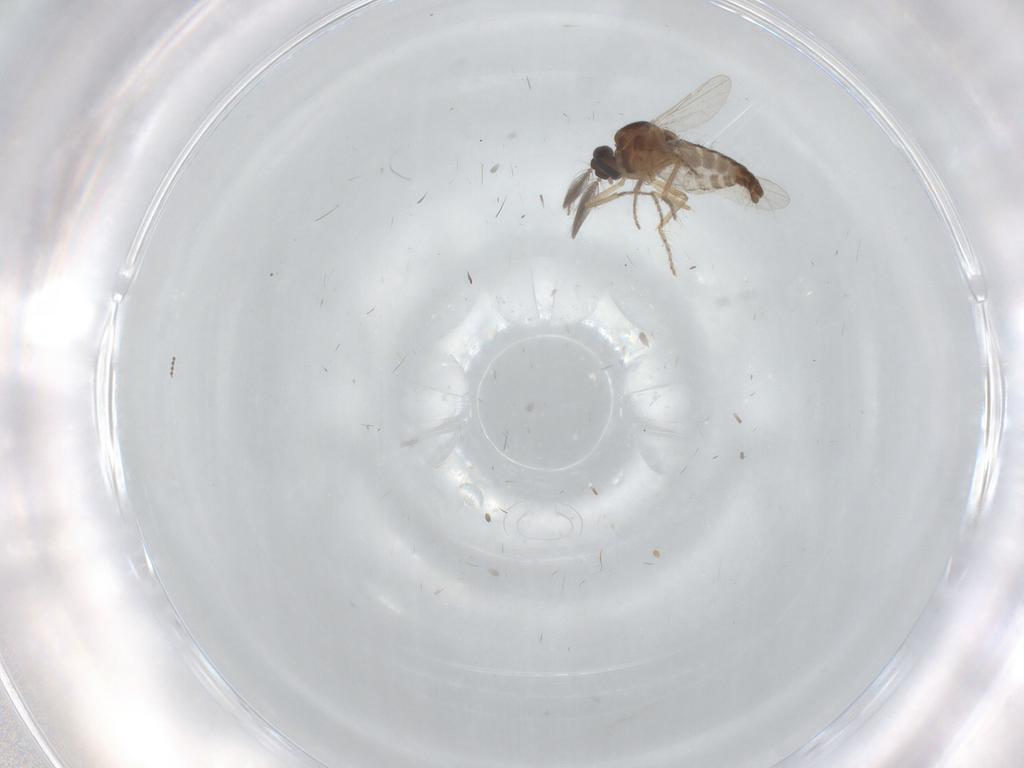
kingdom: Animalia
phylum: Arthropoda
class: Insecta
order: Diptera
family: Ceratopogonidae
